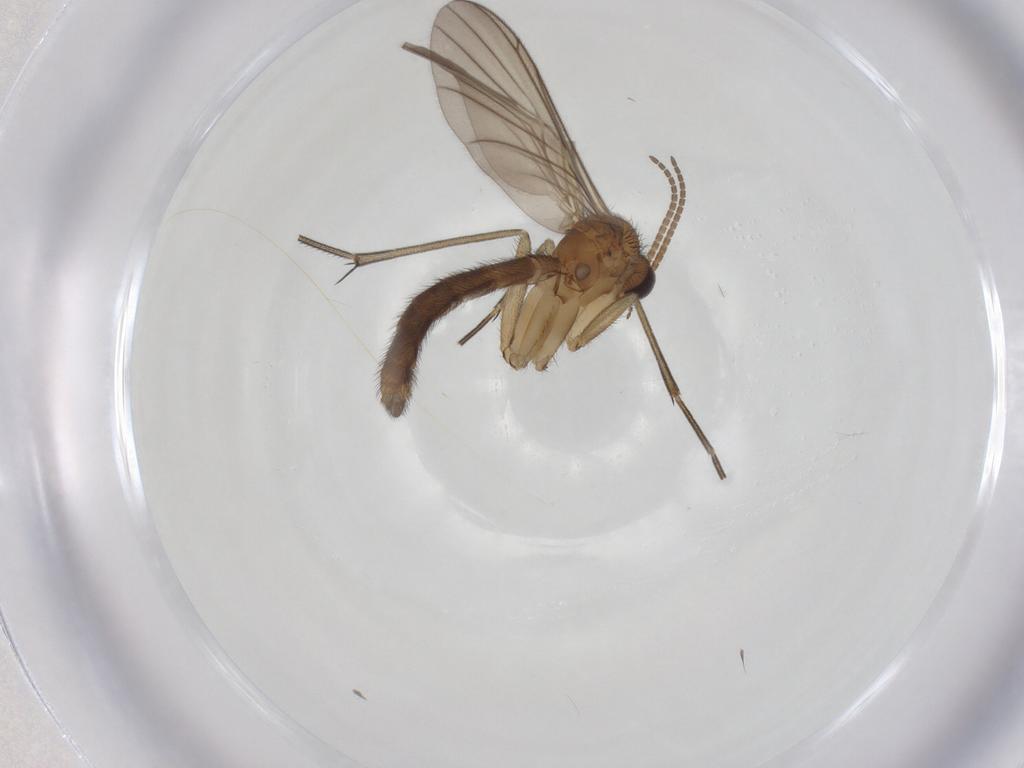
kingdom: Animalia
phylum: Arthropoda
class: Insecta
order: Diptera
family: Keroplatidae
